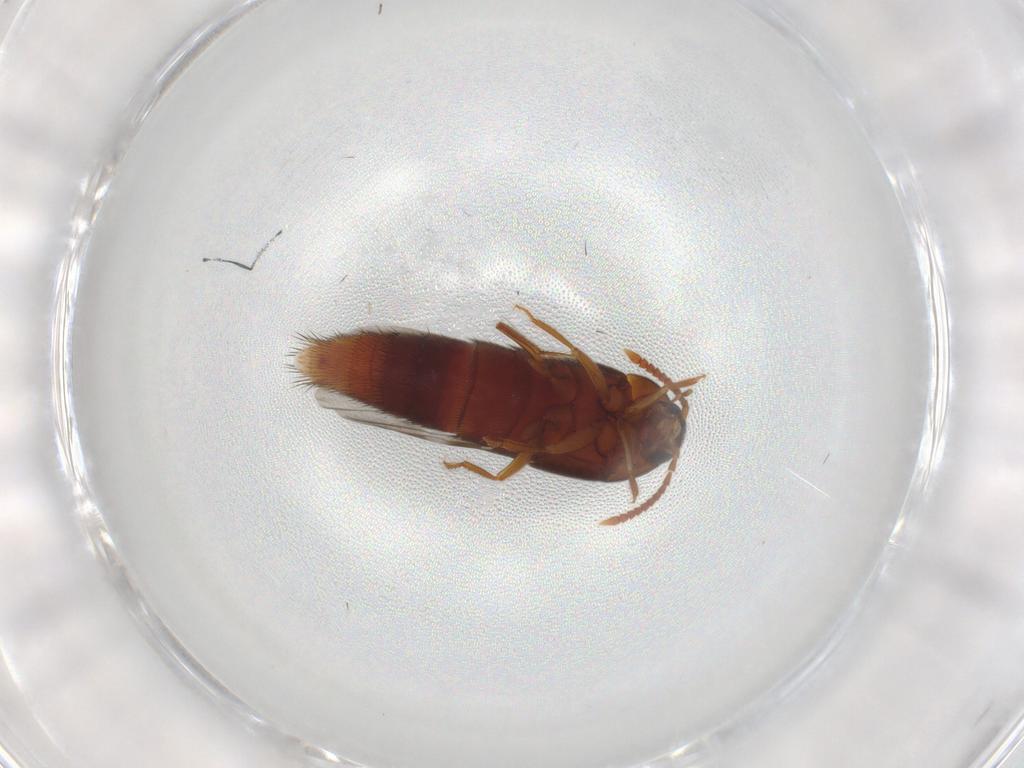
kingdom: Animalia
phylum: Arthropoda
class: Insecta
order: Coleoptera
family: Staphylinidae
